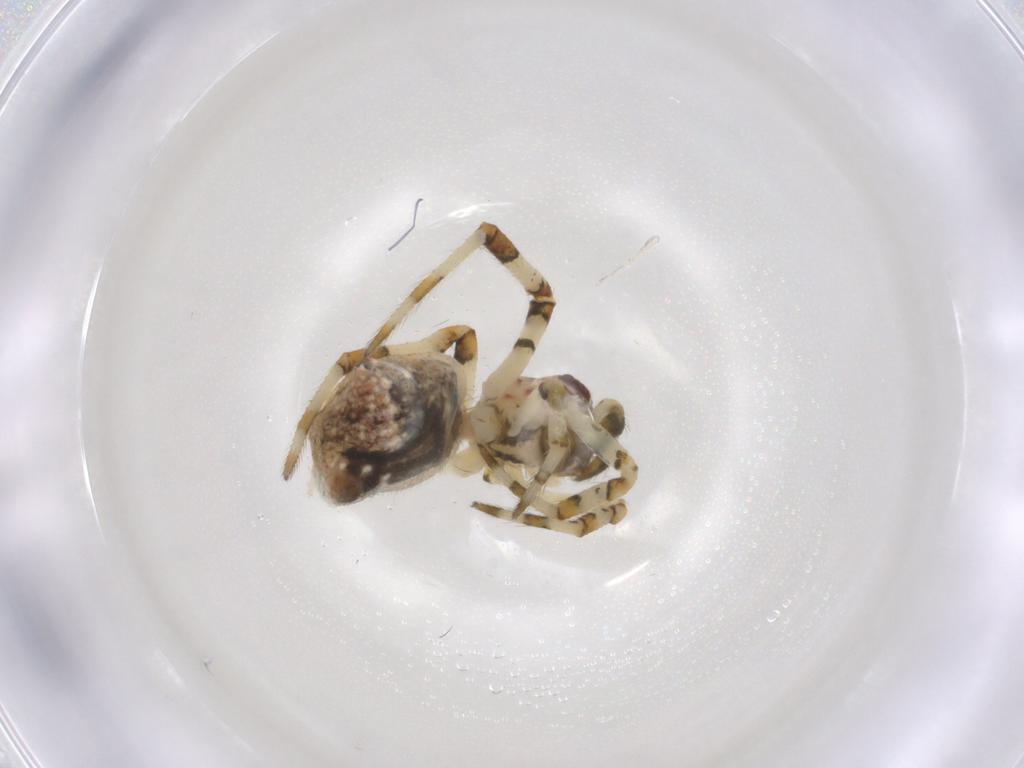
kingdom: Animalia
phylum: Arthropoda
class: Arachnida
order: Araneae
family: Theridiidae
